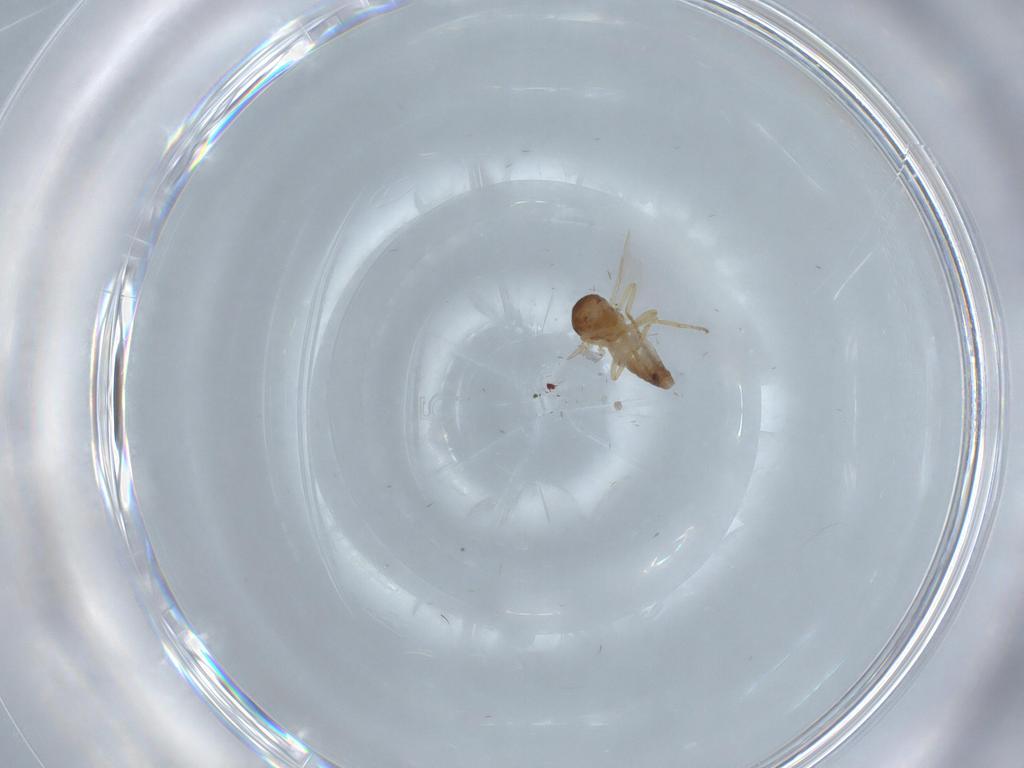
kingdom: Animalia
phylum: Arthropoda
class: Insecta
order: Diptera
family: Ceratopogonidae
